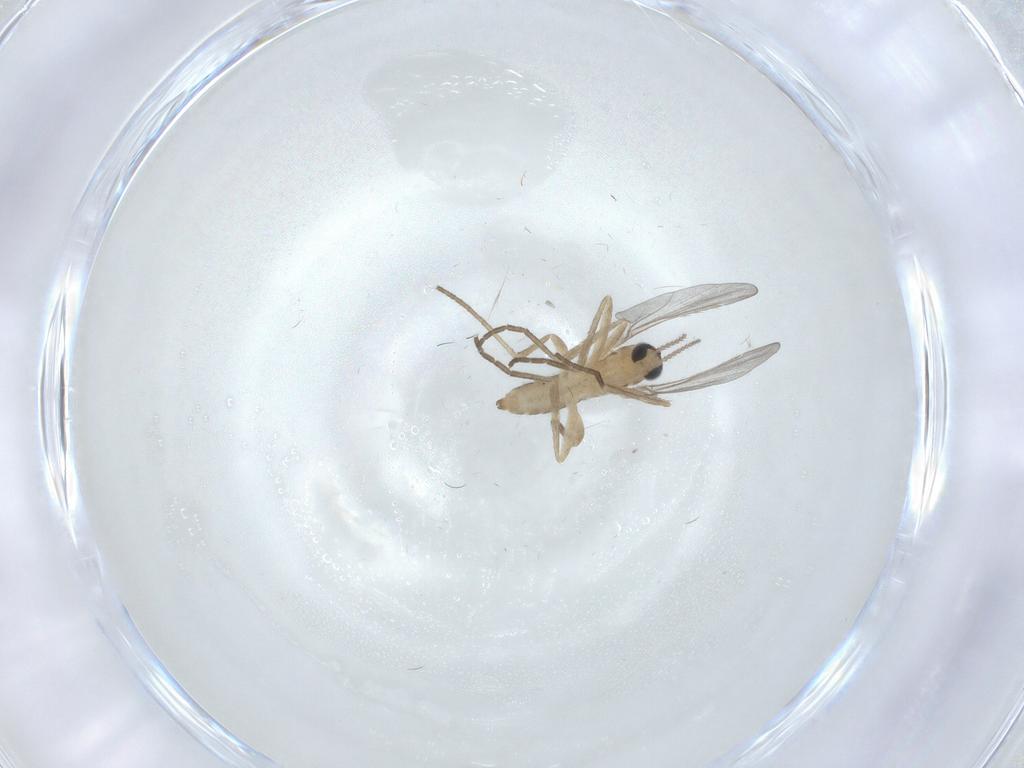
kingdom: Animalia
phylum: Arthropoda
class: Insecta
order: Diptera
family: Cecidomyiidae
